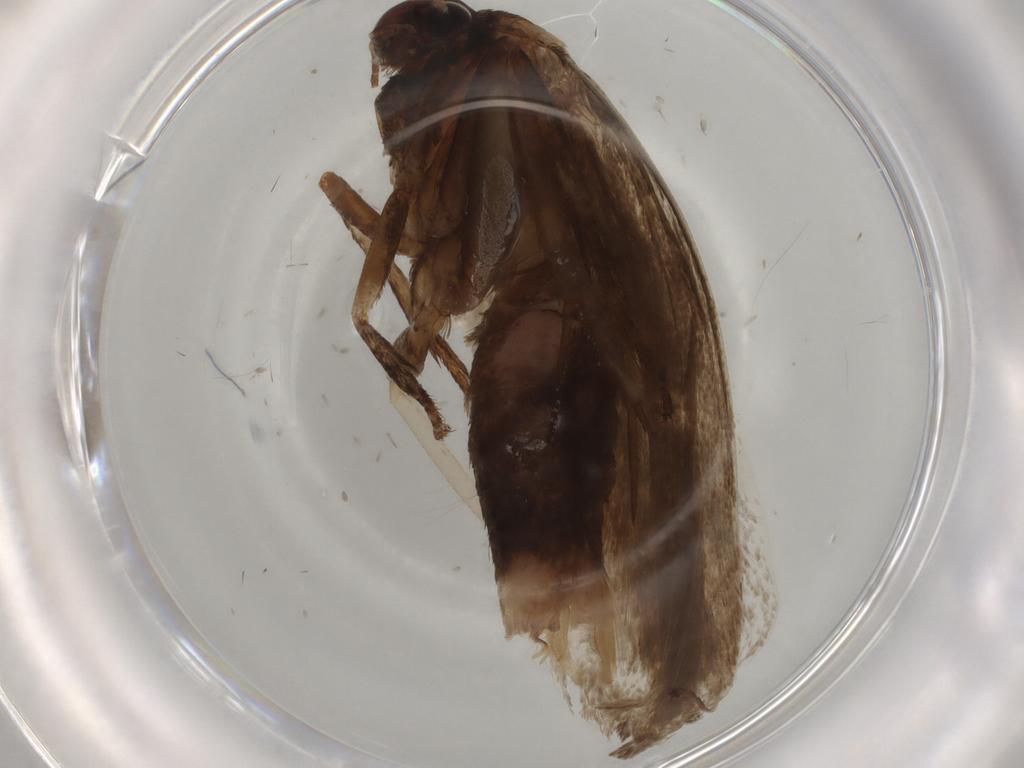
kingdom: Animalia
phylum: Arthropoda
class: Insecta
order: Lepidoptera
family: Gelechiidae
